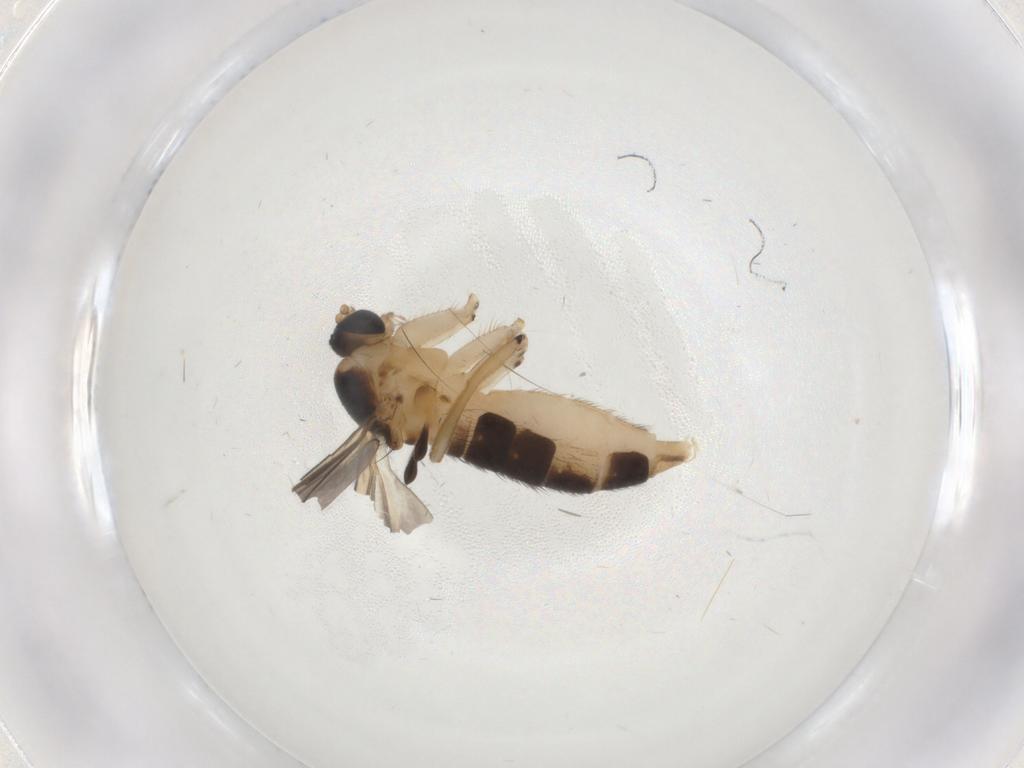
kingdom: Animalia
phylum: Arthropoda
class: Insecta
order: Diptera
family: Sciaridae
